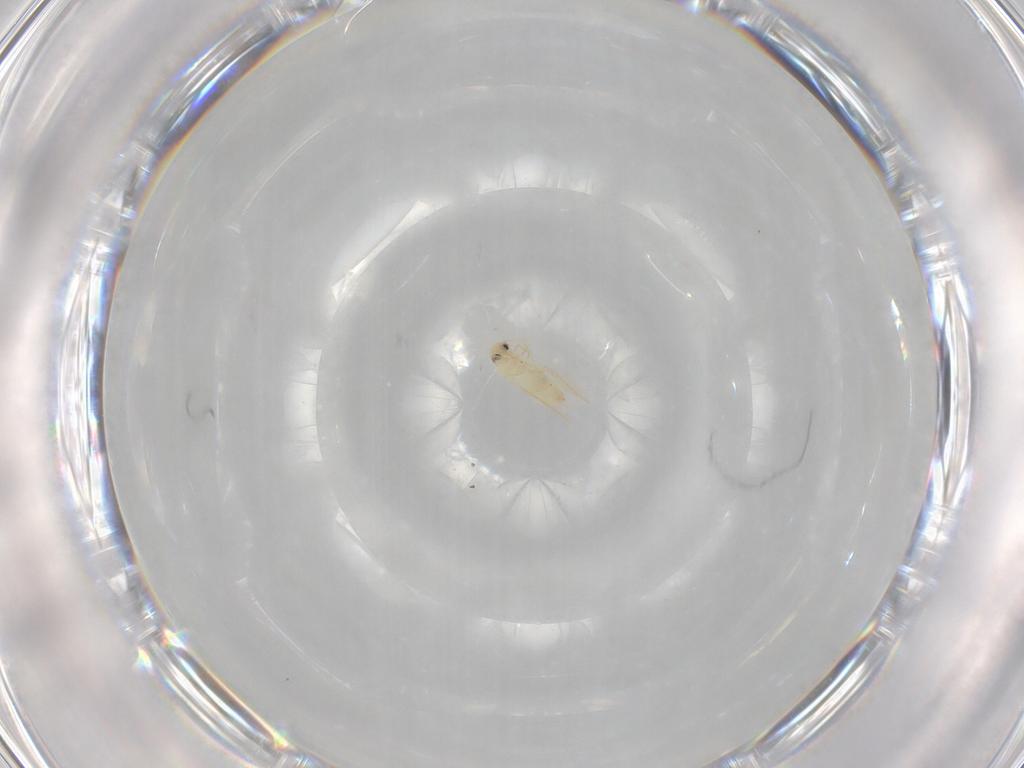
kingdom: Animalia
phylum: Arthropoda
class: Insecta
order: Hemiptera
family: Aleyrodidae
